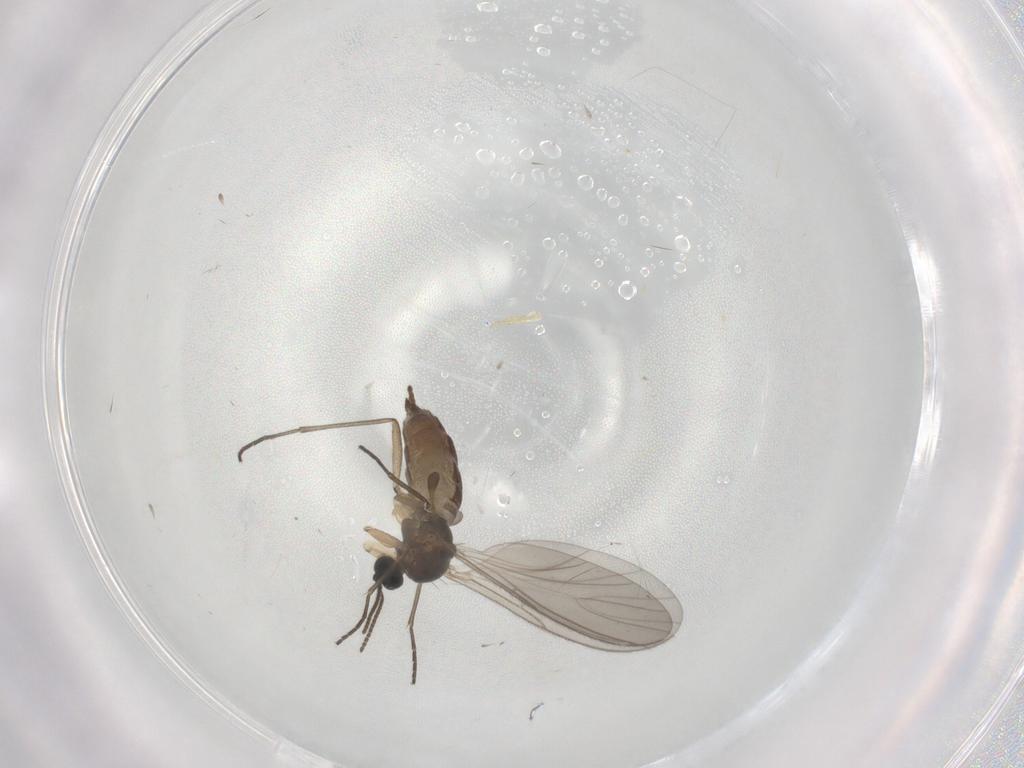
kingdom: Animalia
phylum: Arthropoda
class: Insecta
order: Diptera
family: Sciaridae
